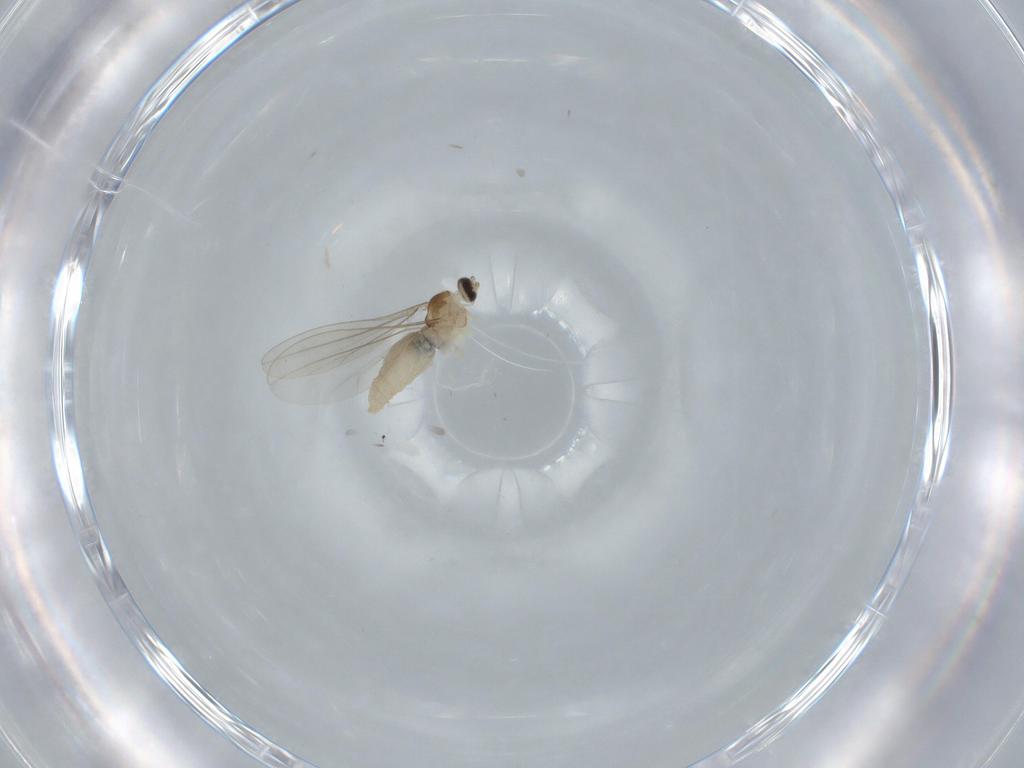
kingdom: Animalia
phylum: Arthropoda
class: Insecta
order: Diptera
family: Cecidomyiidae
